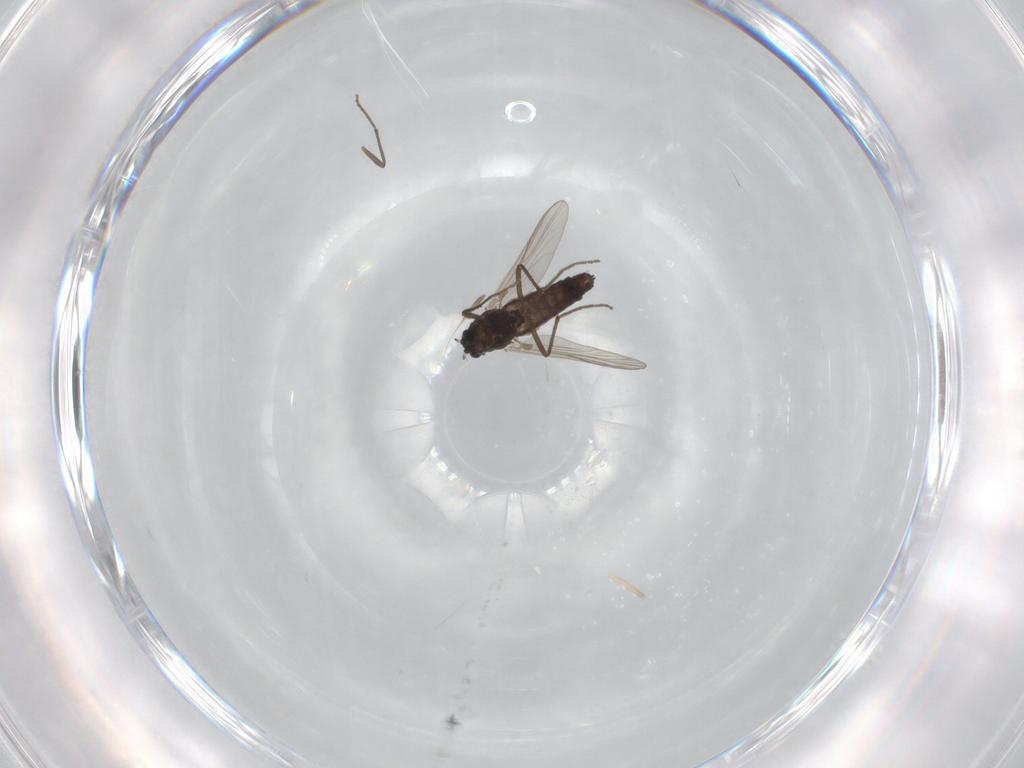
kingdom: Animalia
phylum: Arthropoda
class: Insecta
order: Diptera
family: Chironomidae
